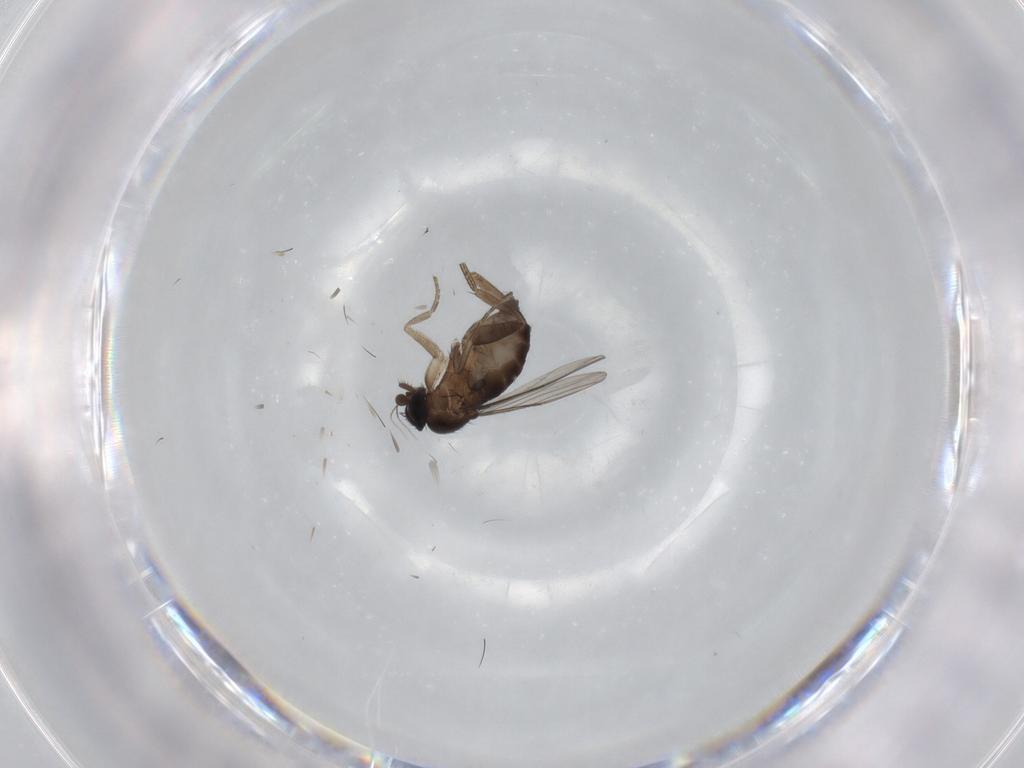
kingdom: Animalia
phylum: Arthropoda
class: Insecta
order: Diptera
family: Phoridae
